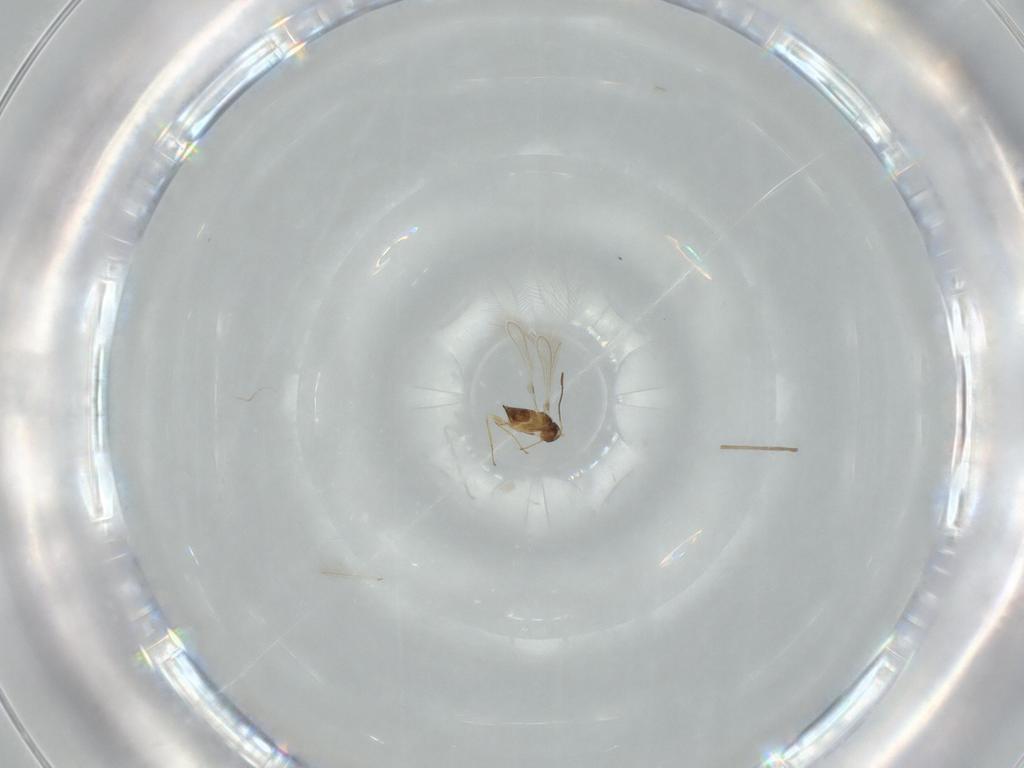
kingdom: Animalia
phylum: Arthropoda
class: Insecta
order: Hymenoptera
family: Mymaridae
